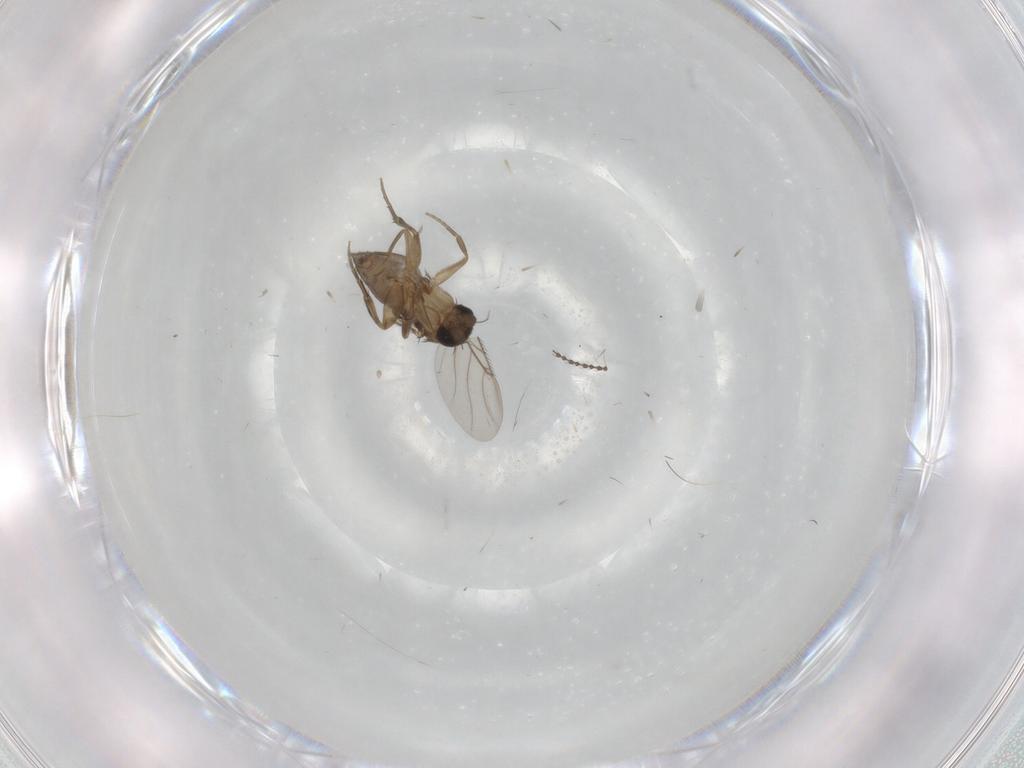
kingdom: Animalia
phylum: Arthropoda
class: Insecta
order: Diptera
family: Phoridae
